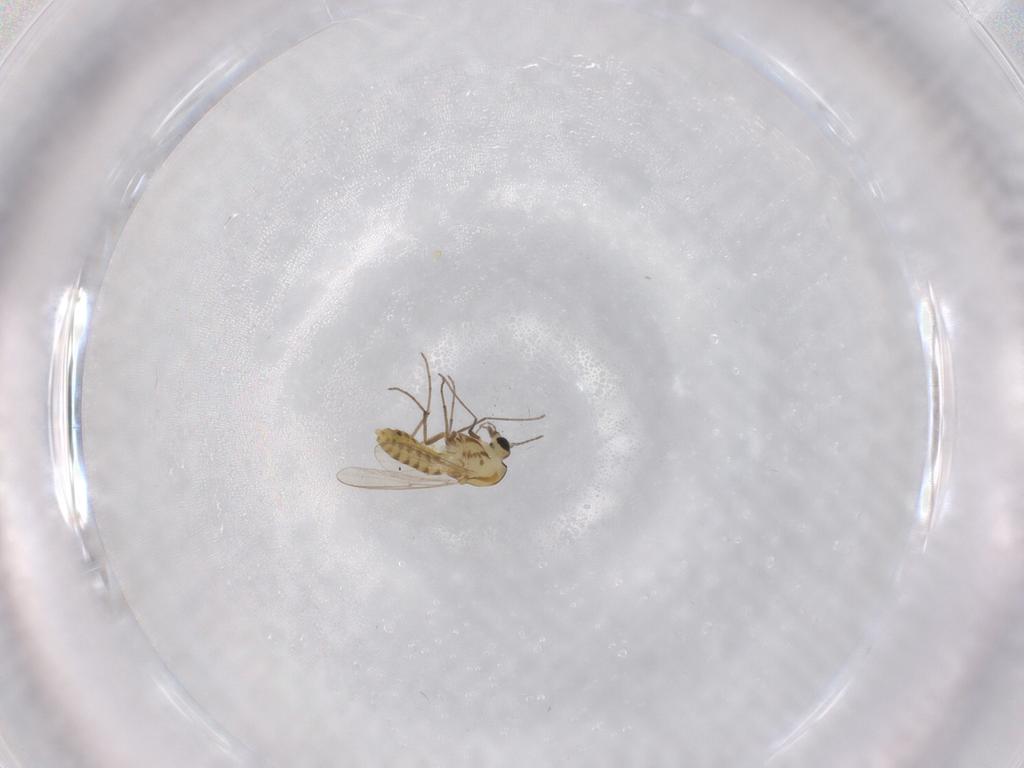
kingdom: Animalia
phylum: Arthropoda
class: Insecta
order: Diptera
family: Chironomidae
